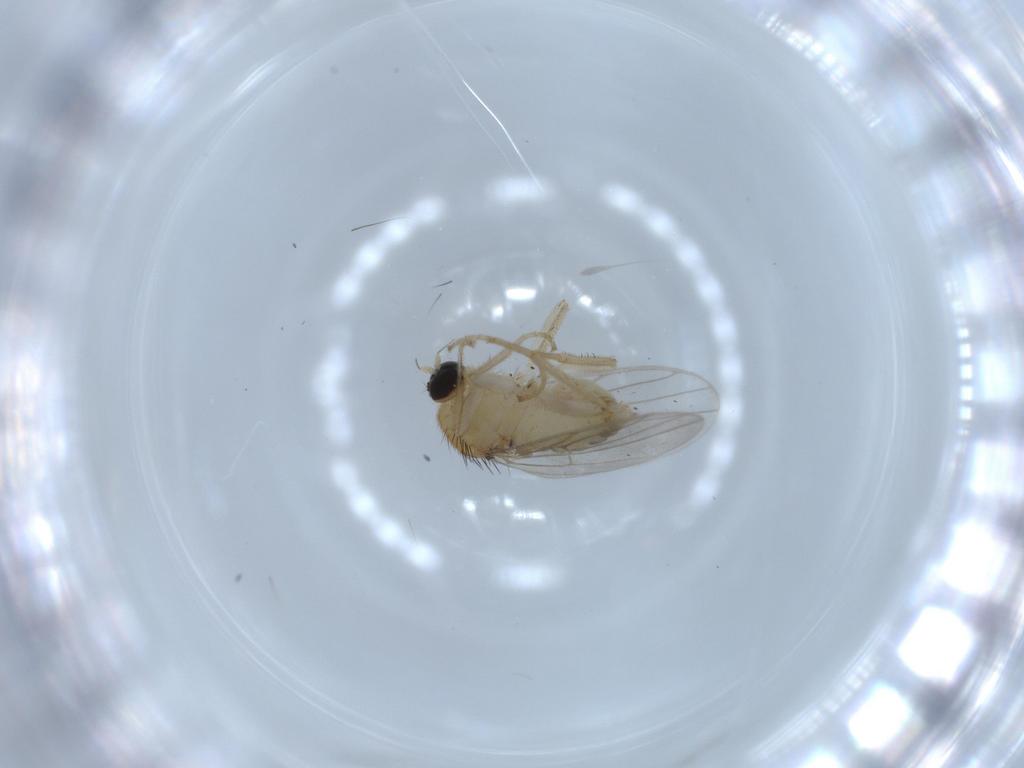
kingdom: Animalia
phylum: Arthropoda
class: Insecta
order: Diptera
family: Hybotidae
